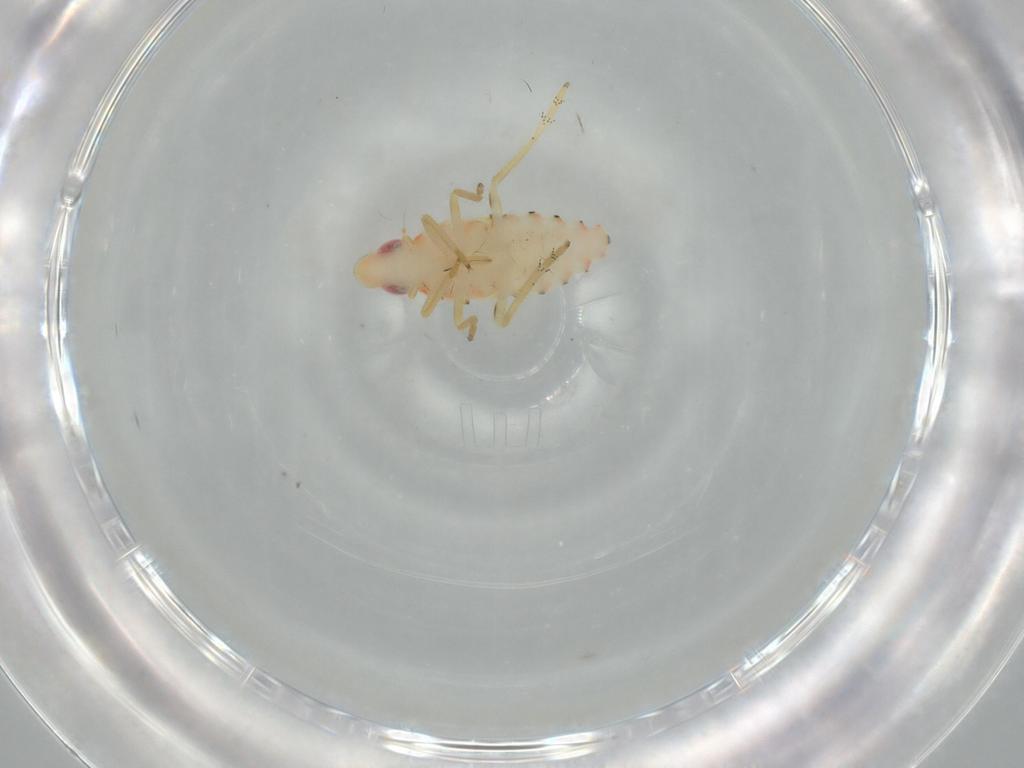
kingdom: Animalia
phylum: Arthropoda
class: Insecta
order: Hemiptera
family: Tropiduchidae
